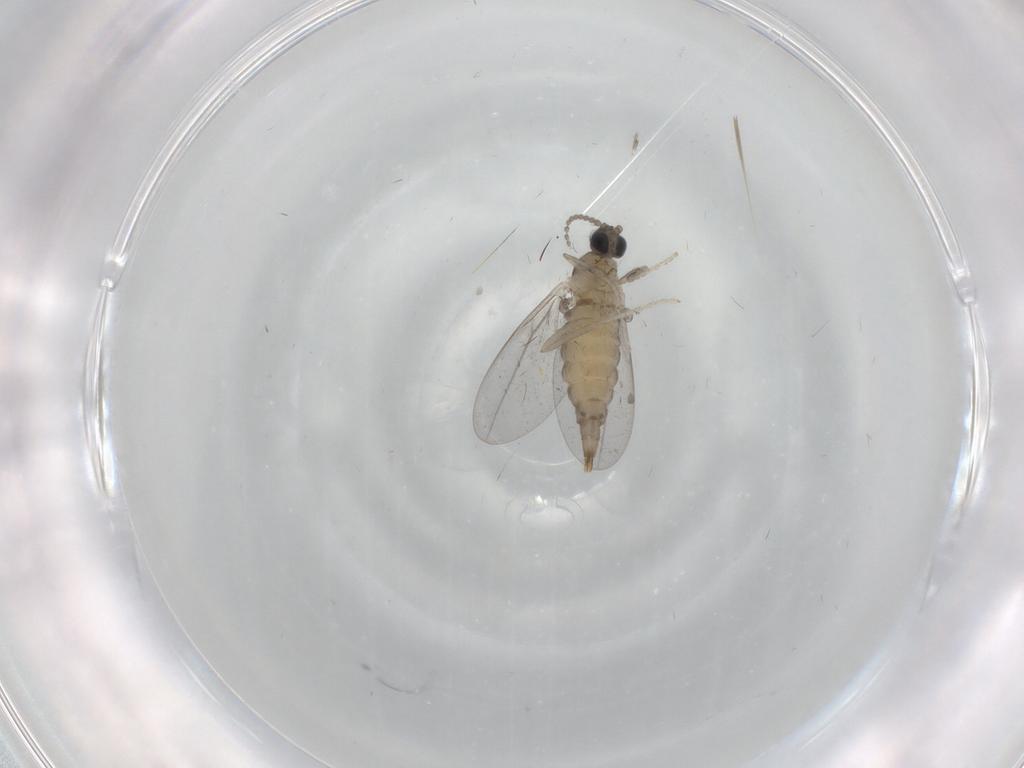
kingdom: Animalia
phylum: Arthropoda
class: Insecta
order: Diptera
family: Cecidomyiidae
